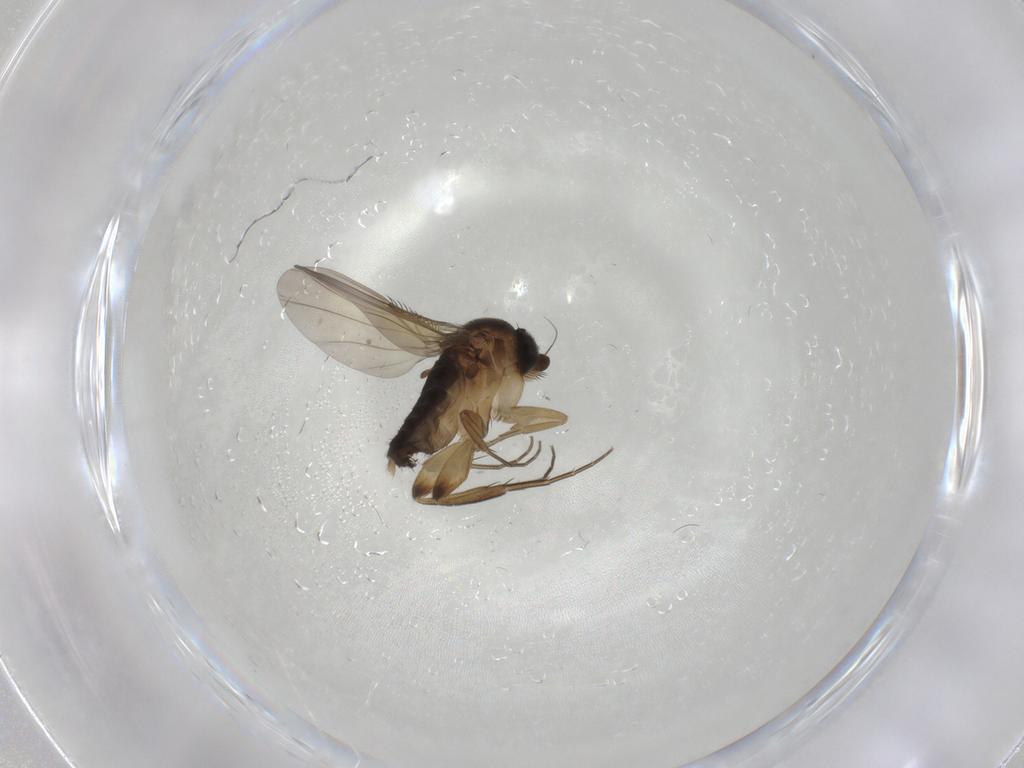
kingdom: Animalia
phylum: Arthropoda
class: Insecta
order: Diptera
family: Phoridae
